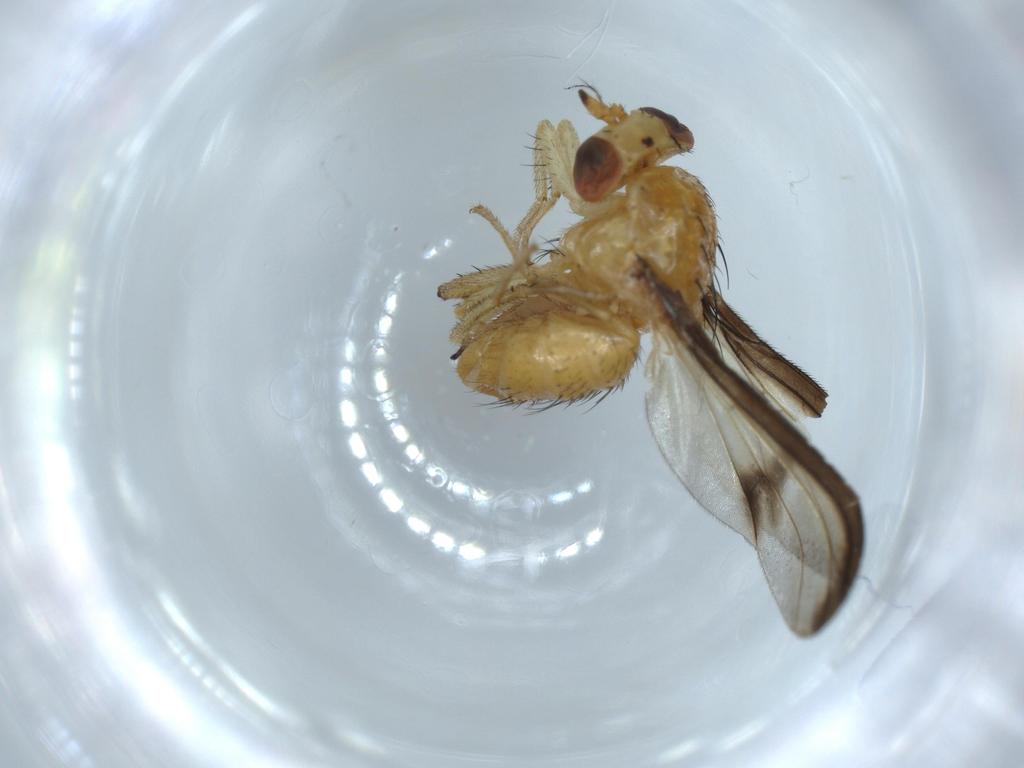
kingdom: Animalia
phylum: Arthropoda
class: Insecta
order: Diptera
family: Lauxaniidae
